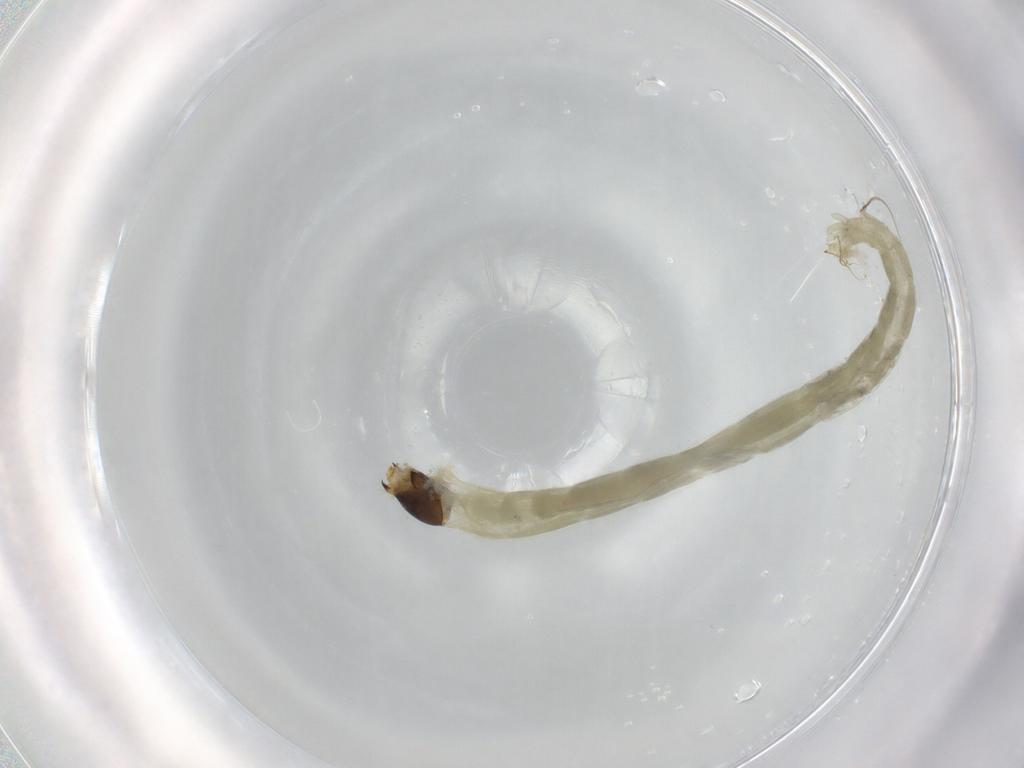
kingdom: Animalia
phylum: Arthropoda
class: Insecta
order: Diptera
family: Chironomidae
